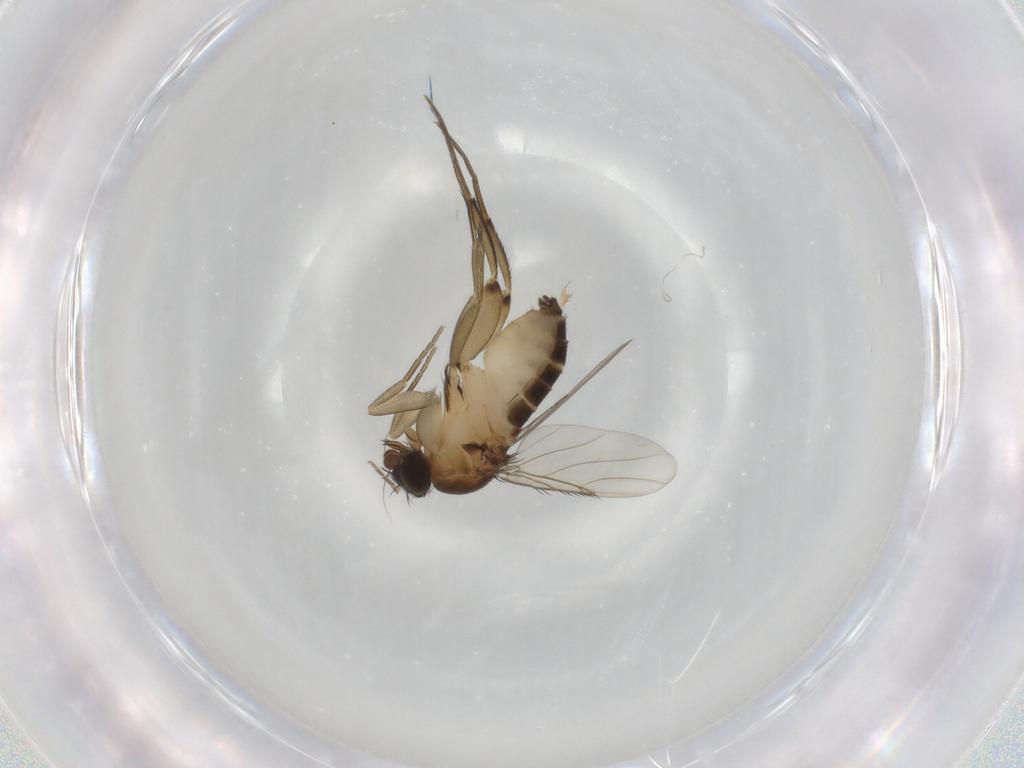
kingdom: Animalia
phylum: Arthropoda
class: Insecta
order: Diptera
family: Phoridae
